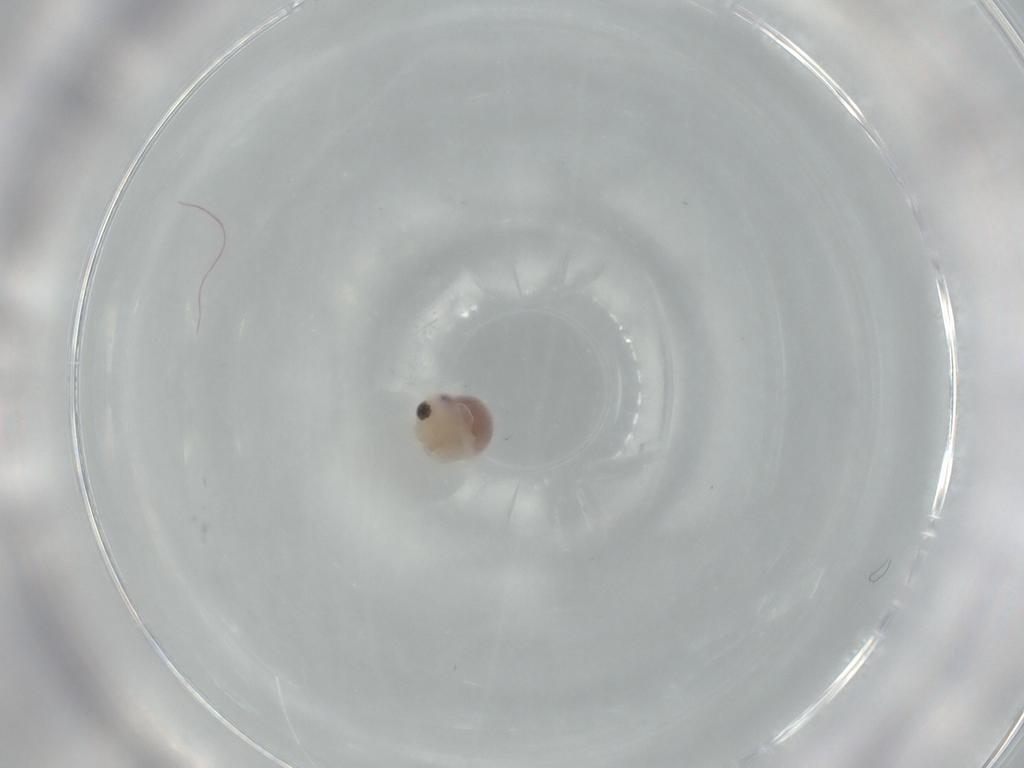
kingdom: Animalia
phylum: Arthropoda
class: Arachnida
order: Araneae
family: Pholcidae
